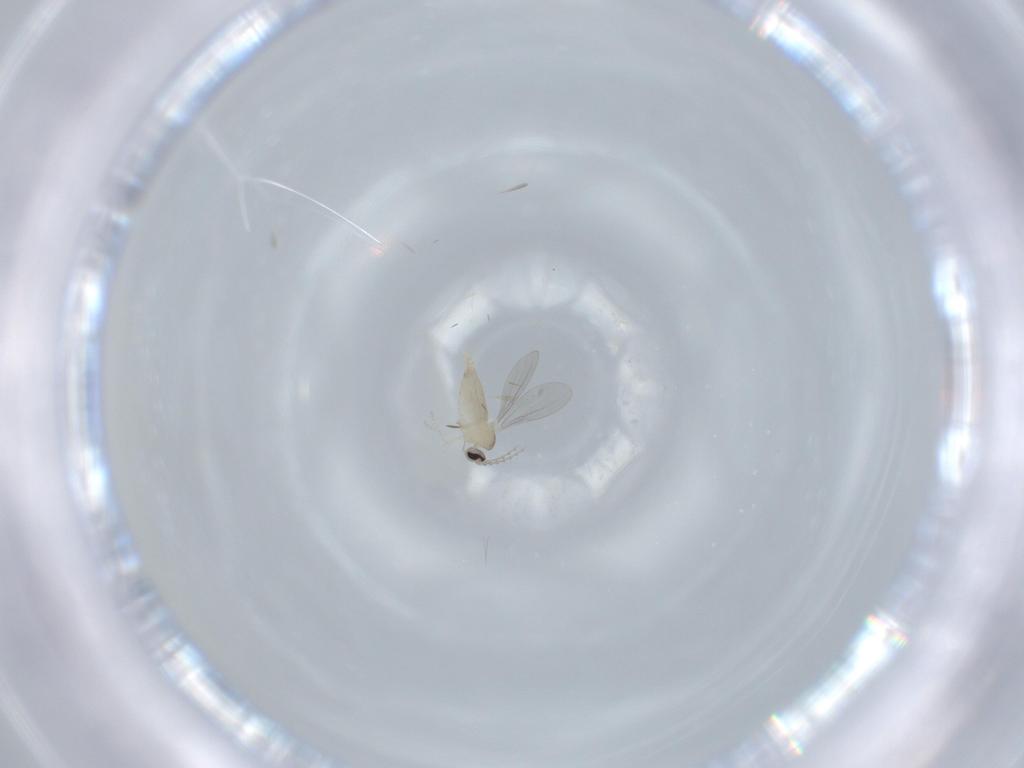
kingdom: Animalia
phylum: Arthropoda
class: Insecta
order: Diptera
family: Cecidomyiidae
